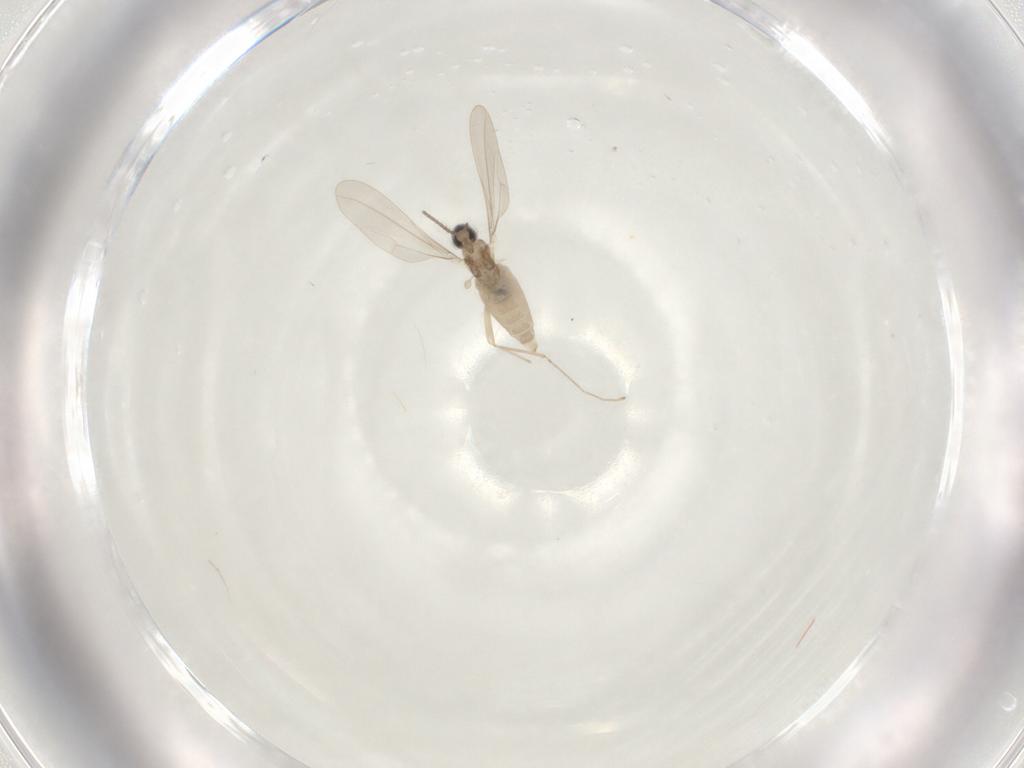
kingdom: Animalia
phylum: Arthropoda
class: Insecta
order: Diptera
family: Cecidomyiidae
